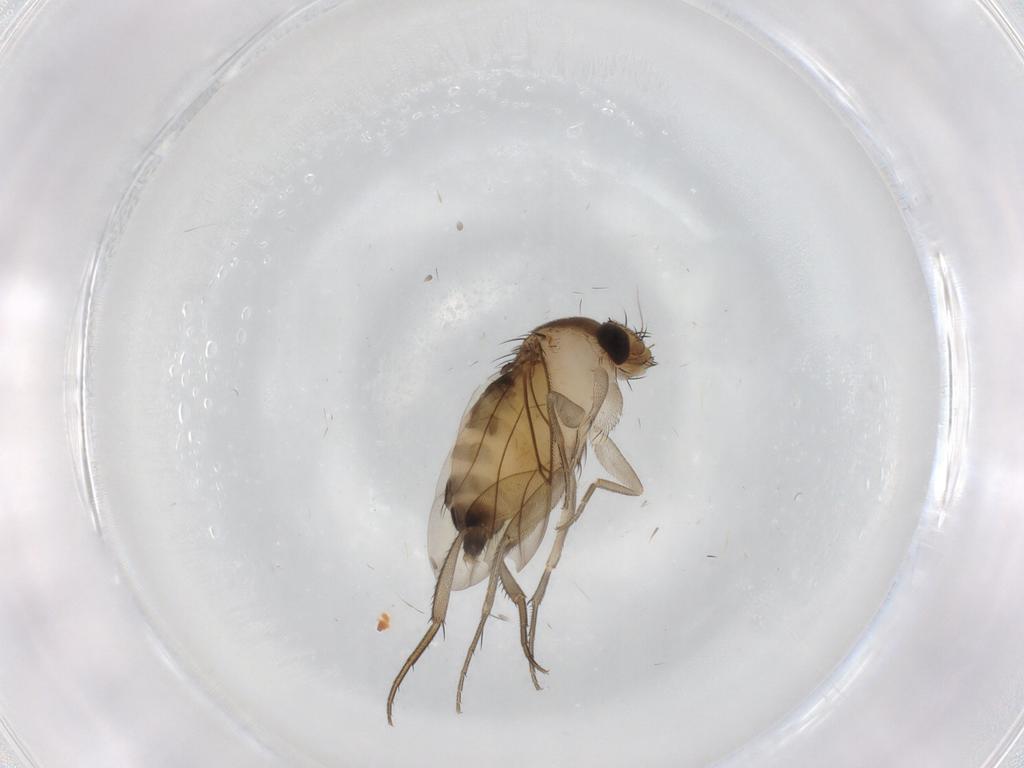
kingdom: Animalia
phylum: Arthropoda
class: Insecta
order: Diptera
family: Phoridae
